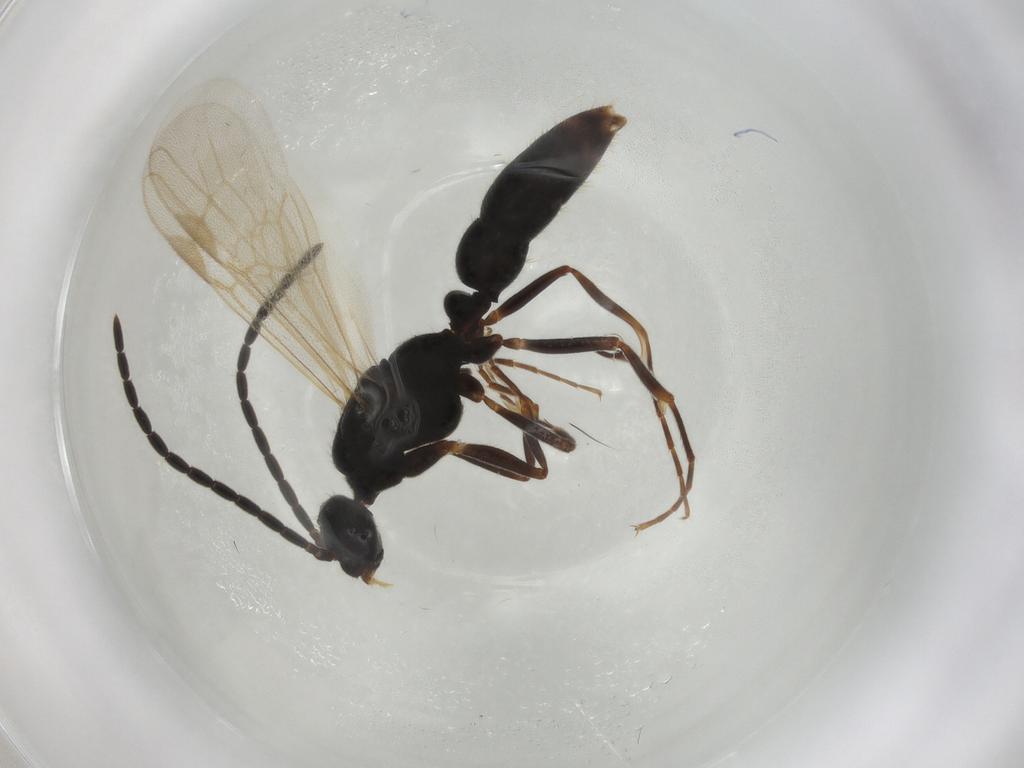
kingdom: Animalia
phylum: Arthropoda
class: Insecta
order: Hymenoptera
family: Formicidae
